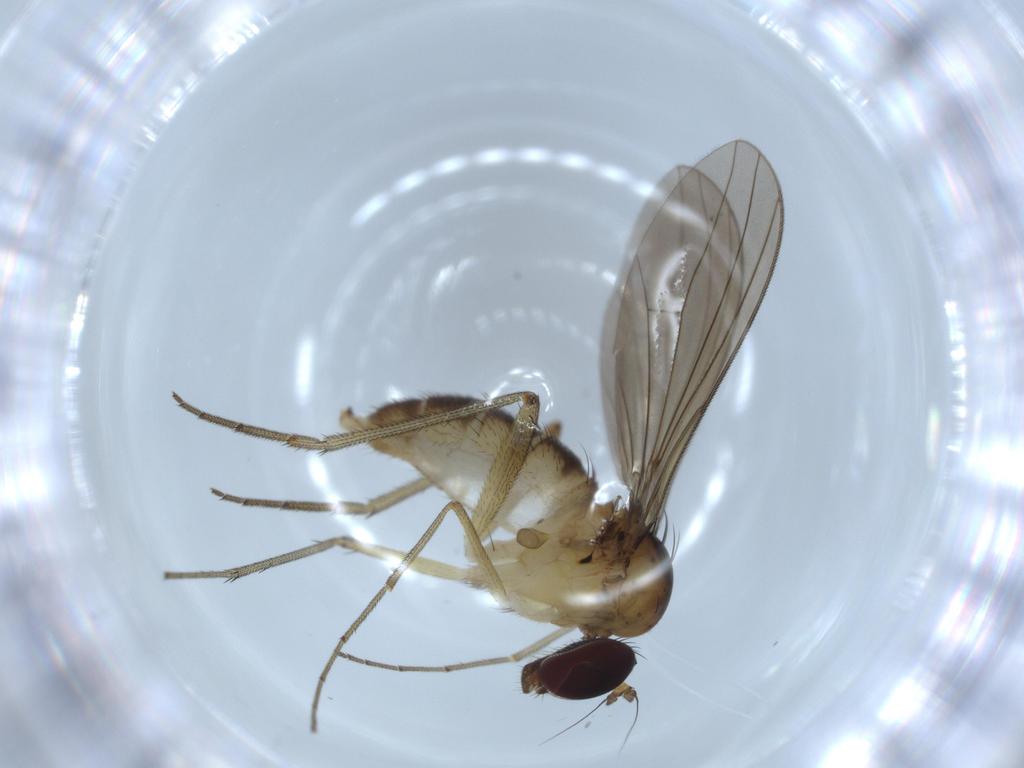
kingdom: Animalia
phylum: Arthropoda
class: Insecta
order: Diptera
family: Dolichopodidae
